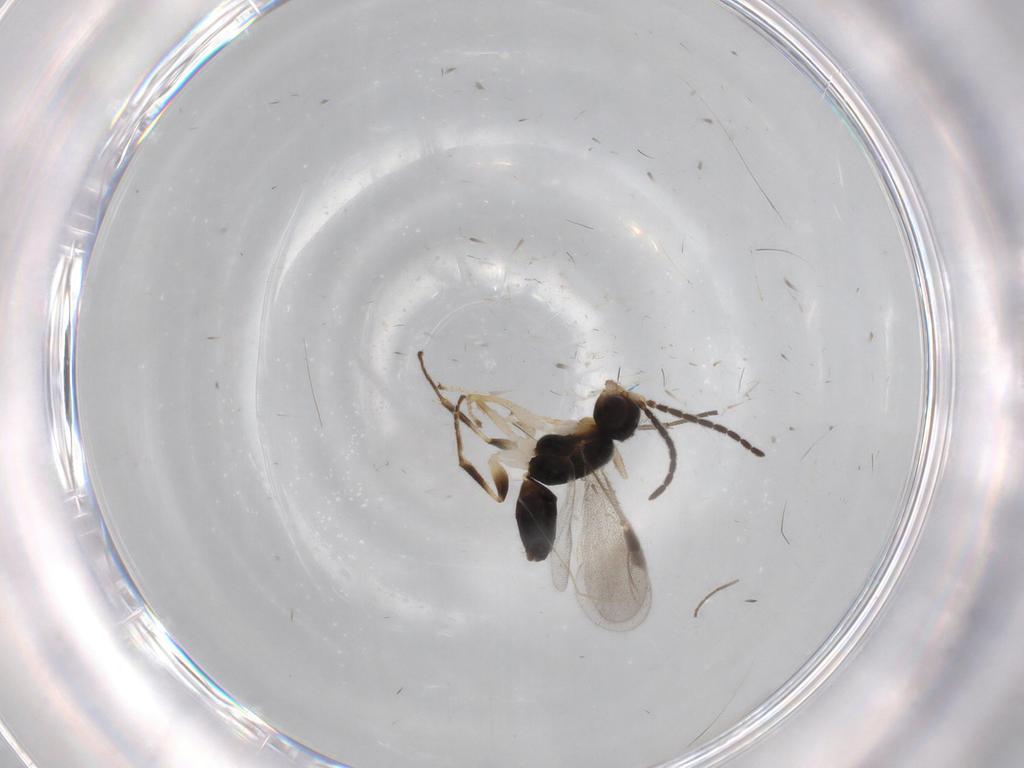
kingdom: Animalia
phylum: Arthropoda
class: Insecta
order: Hymenoptera
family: Dryinidae
